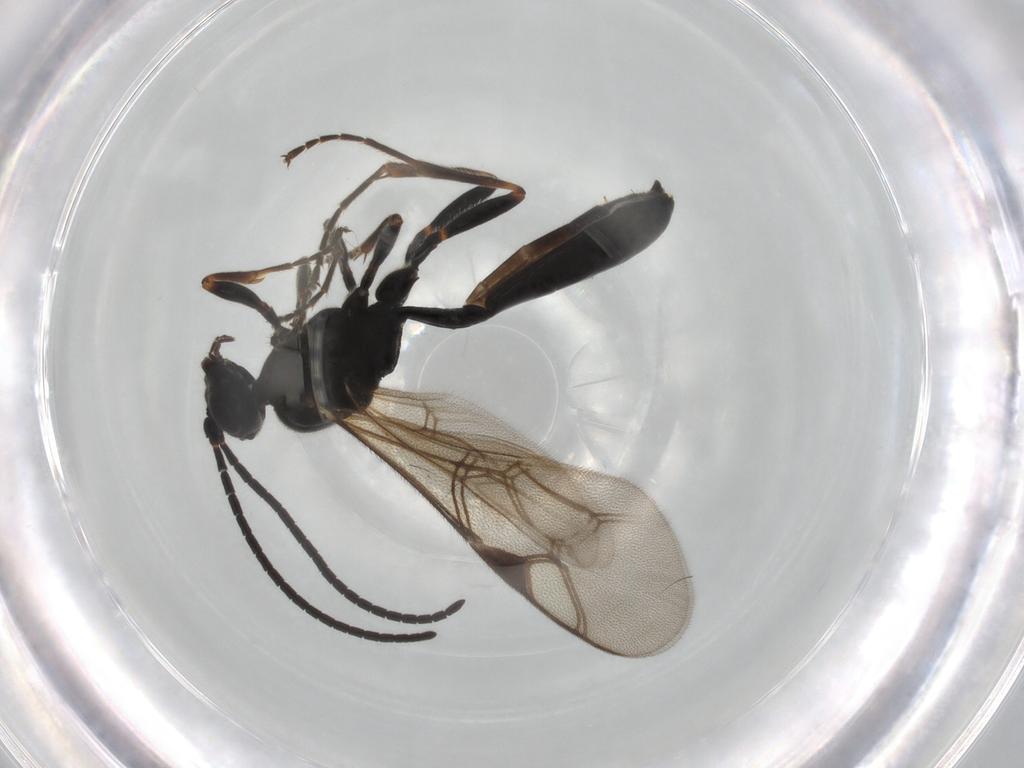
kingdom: Animalia
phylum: Arthropoda
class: Insecta
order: Hymenoptera
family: Ichneumonidae
